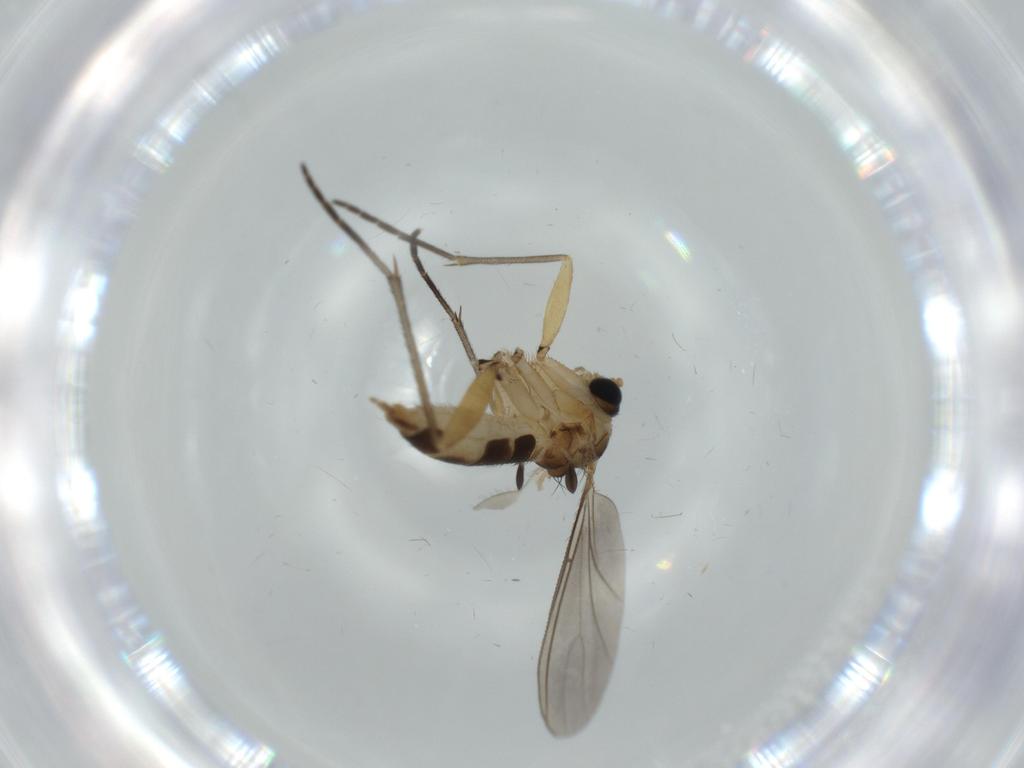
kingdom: Animalia
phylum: Arthropoda
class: Insecta
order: Diptera
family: Sciaridae
